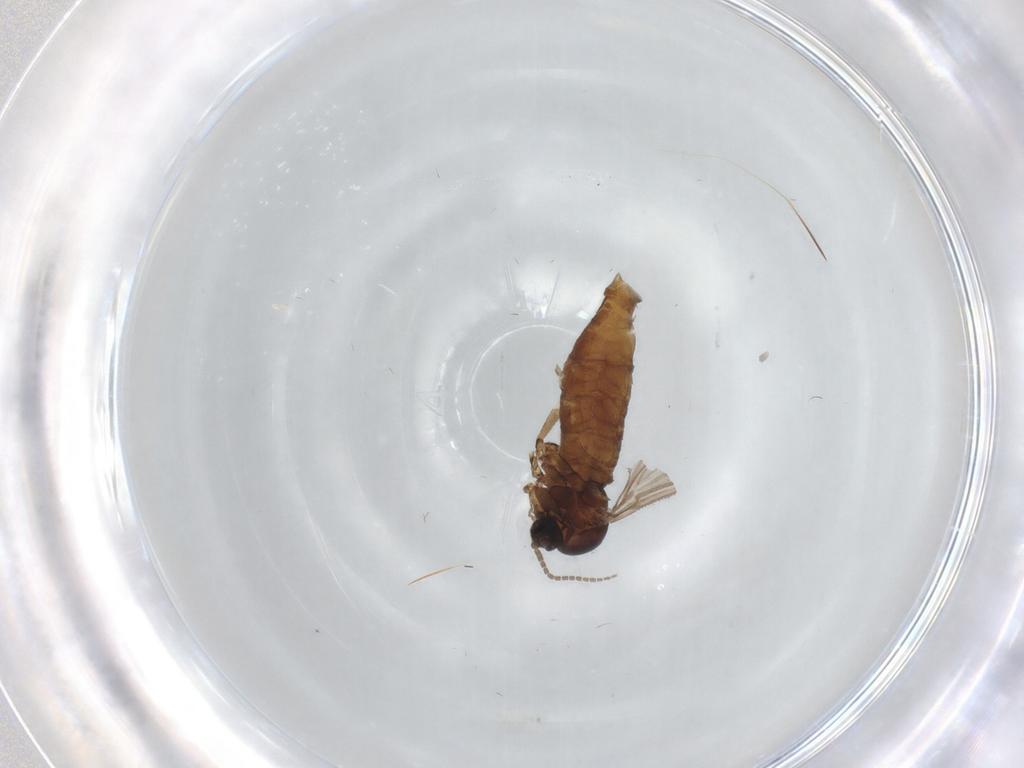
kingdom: Animalia
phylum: Arthropoda
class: Insecta
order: Diptera
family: Sciaridae
